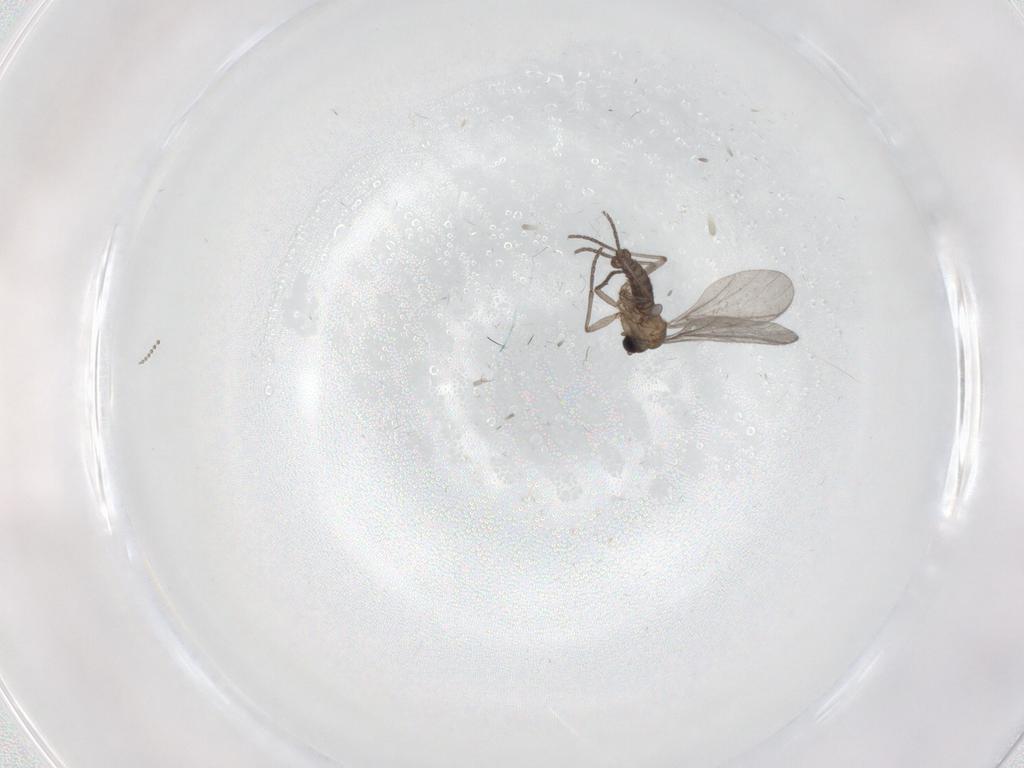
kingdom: Animalia
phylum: Arthropoda
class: Insecta
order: Diptera
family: Sciaridae
